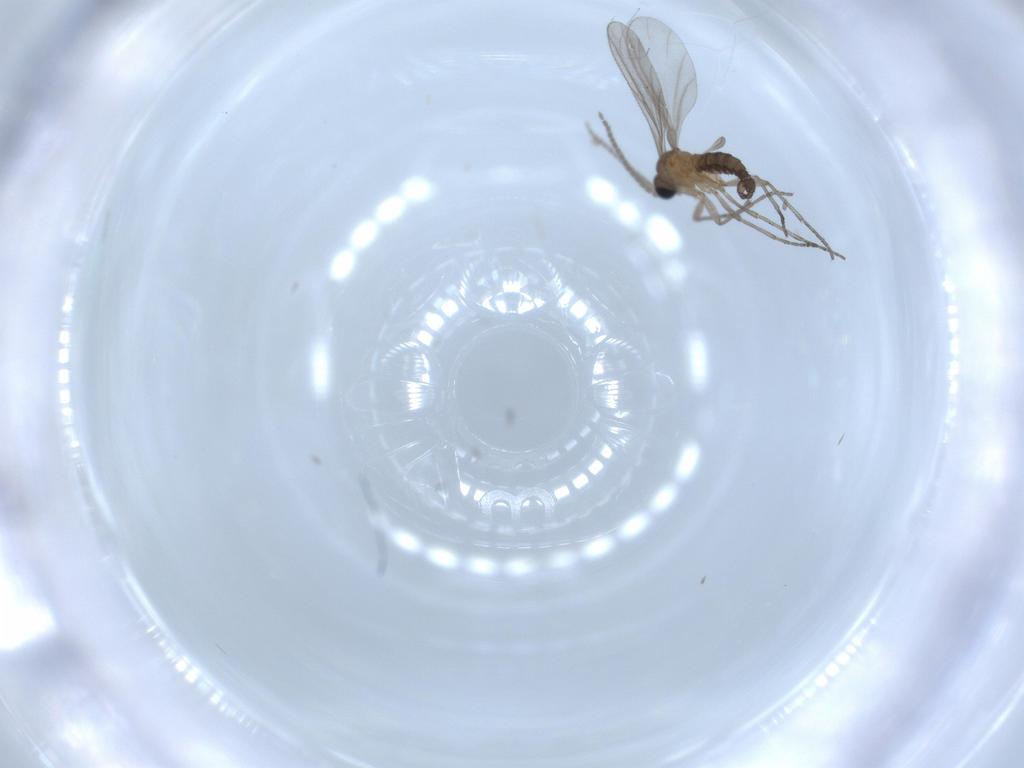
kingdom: Animalia
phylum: Arthropoda
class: Insecta
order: Diptera
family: Sciaridae
